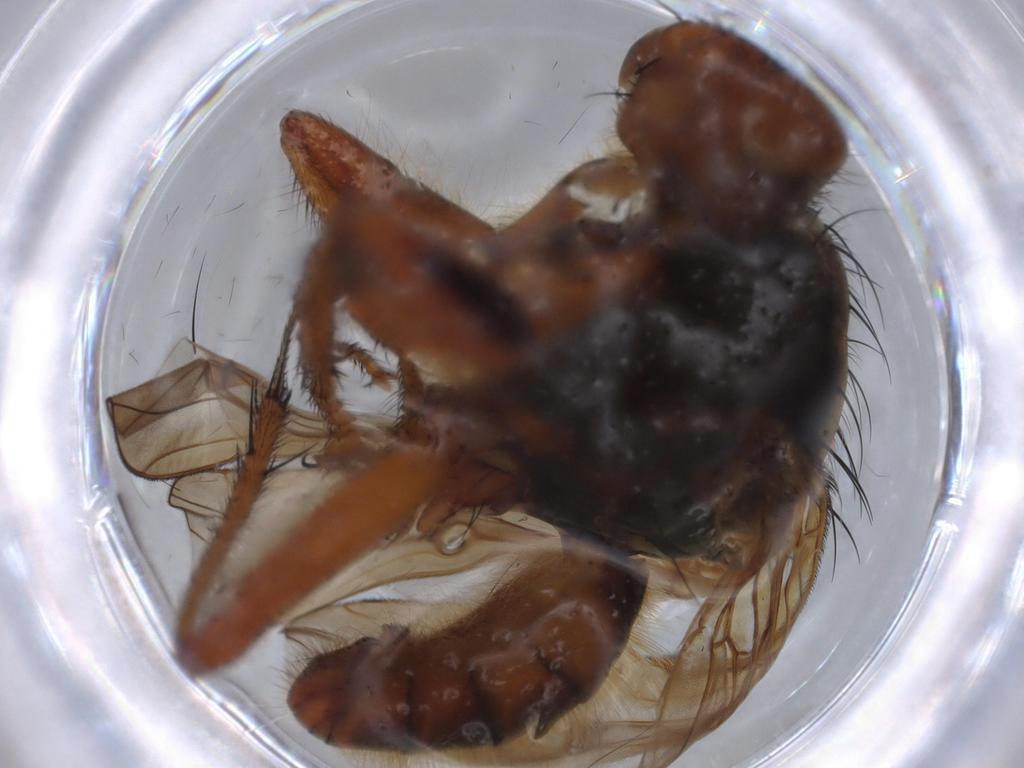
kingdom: Animalia
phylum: Arthropoda
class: Insecta
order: Diptera
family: Scathophagidae
